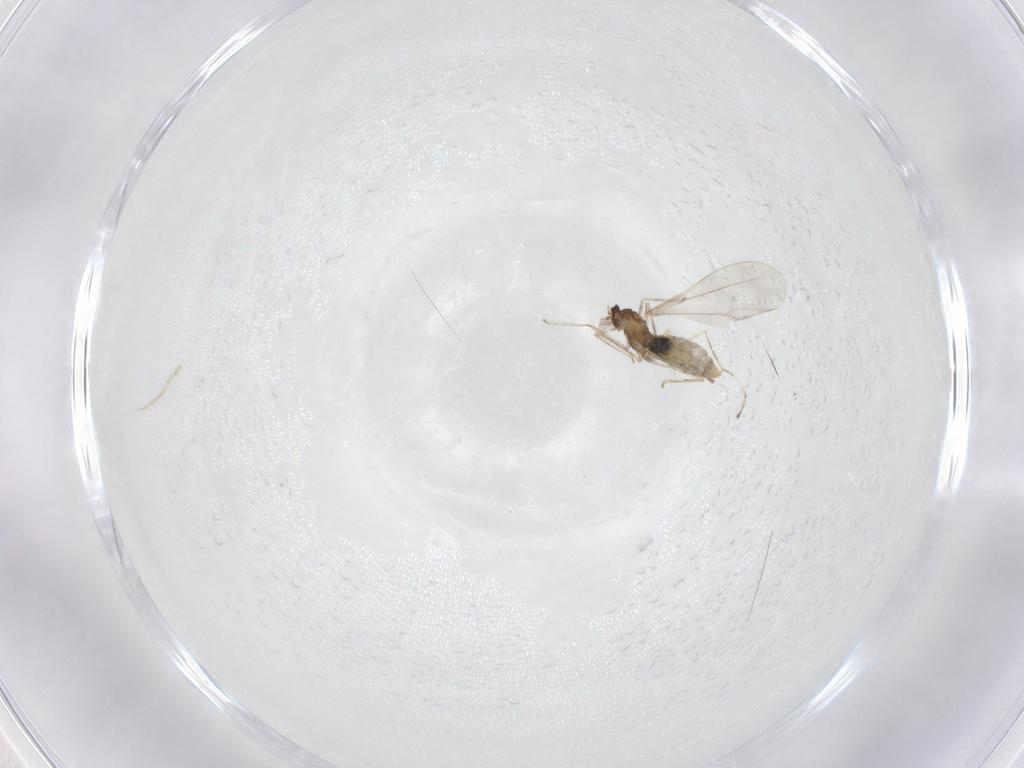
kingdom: Animalia
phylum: Arthropoda
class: Insecta
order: Diptera
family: Cecidomyiidae
